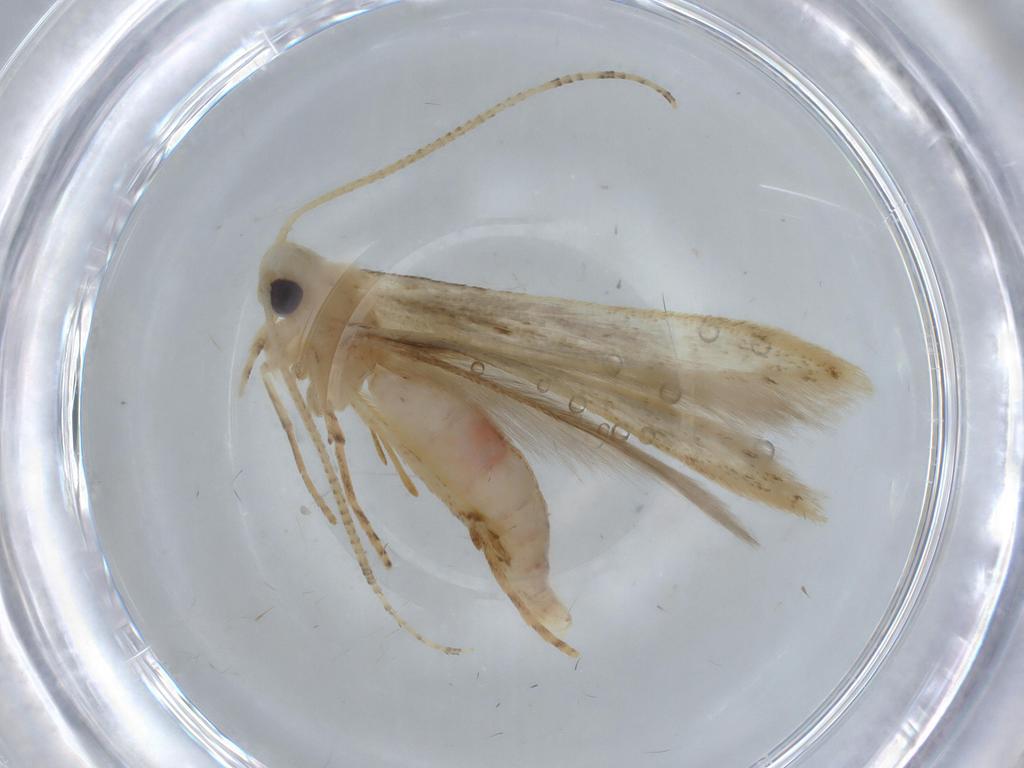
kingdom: Animalia
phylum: Arthropoda
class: Insecta
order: Lepidoptera
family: Batrachedridae
